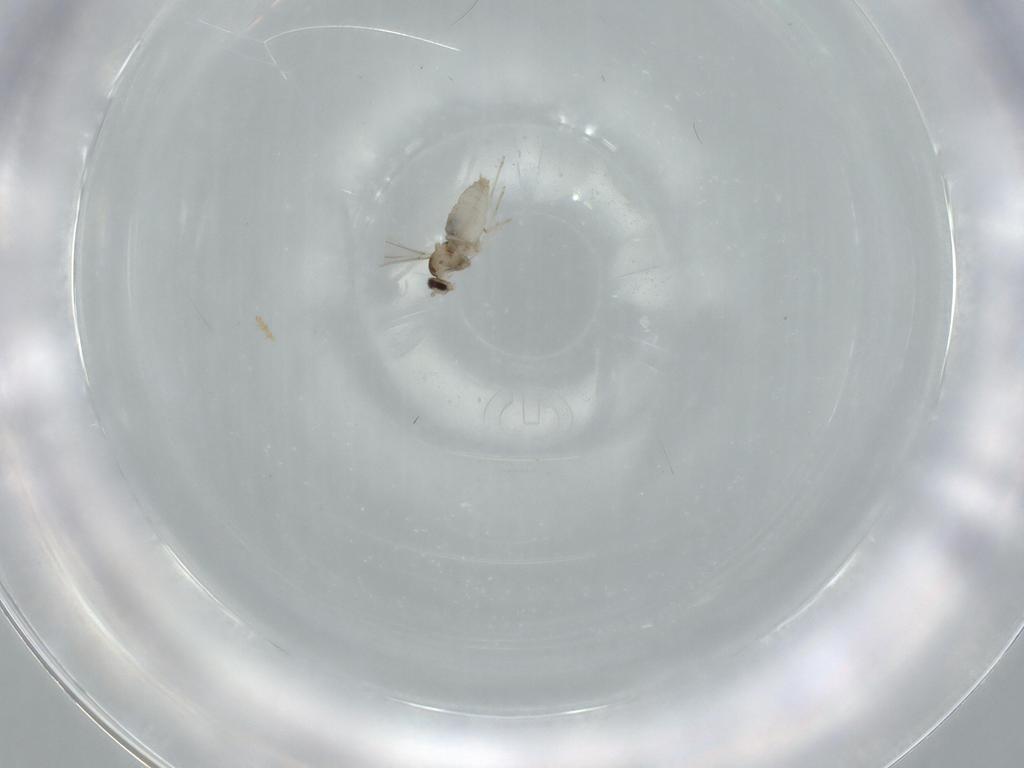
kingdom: Animalia
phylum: Arthropoda
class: Insecta
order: Diptera
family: Cecidomyiidae
